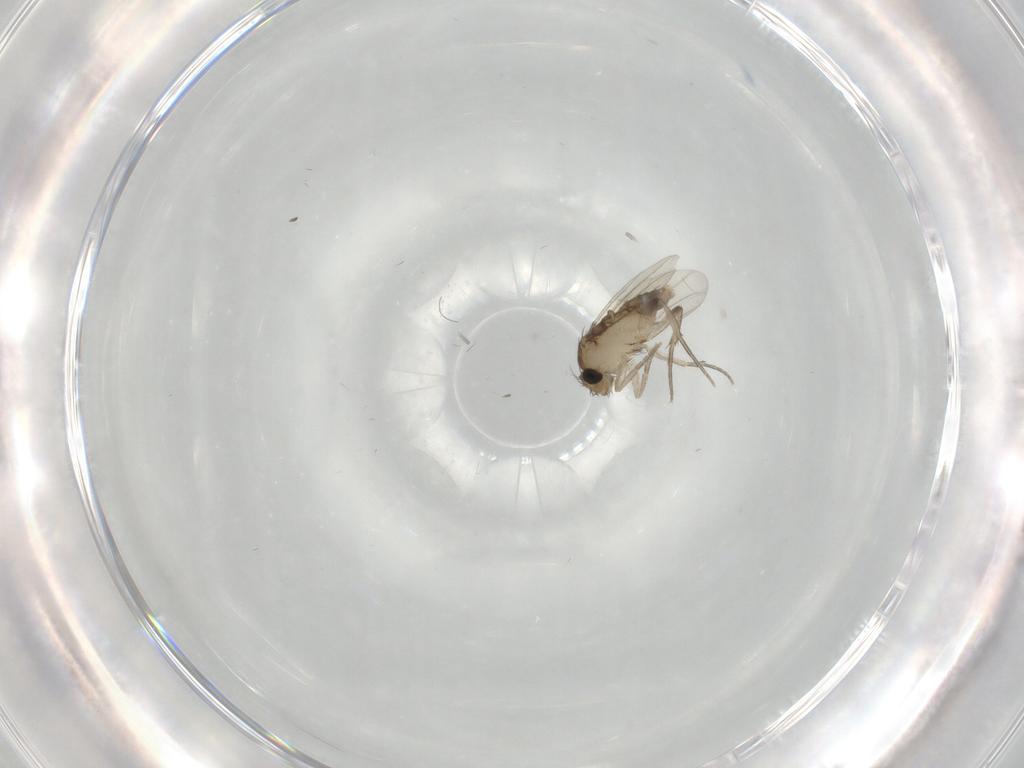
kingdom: Animalia
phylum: Arthropoda
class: Insecta
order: Diptera
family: Phoridae
